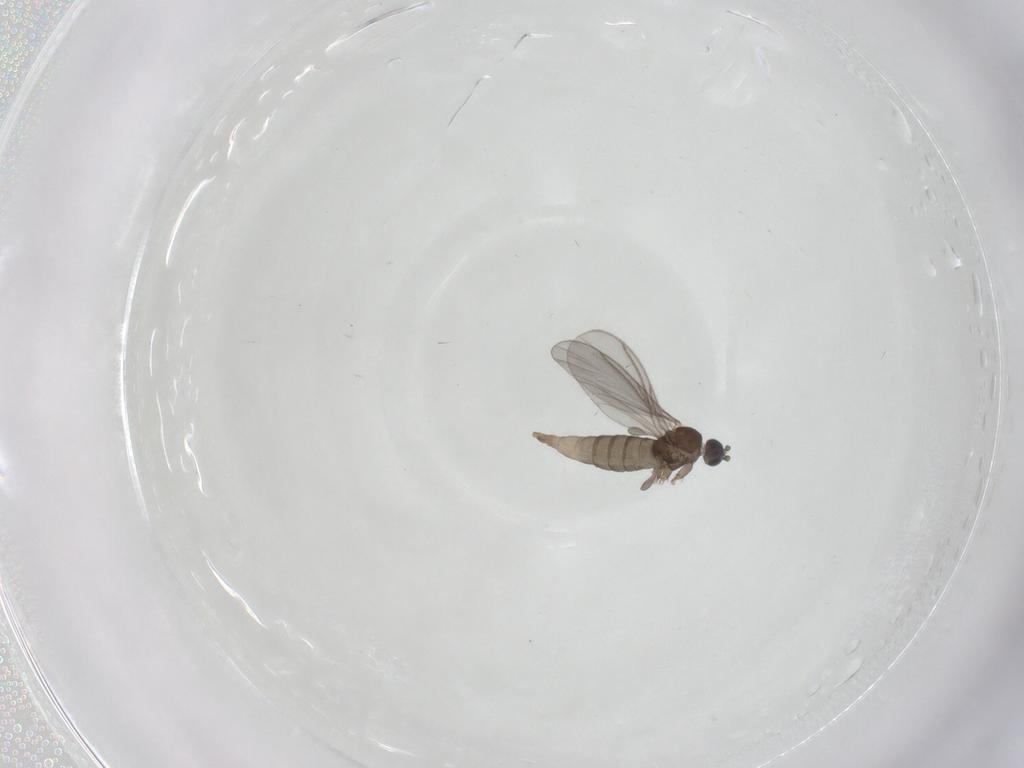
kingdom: Animalia
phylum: Arthropoda
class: Insecta
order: Diptera
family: Sciaridae
